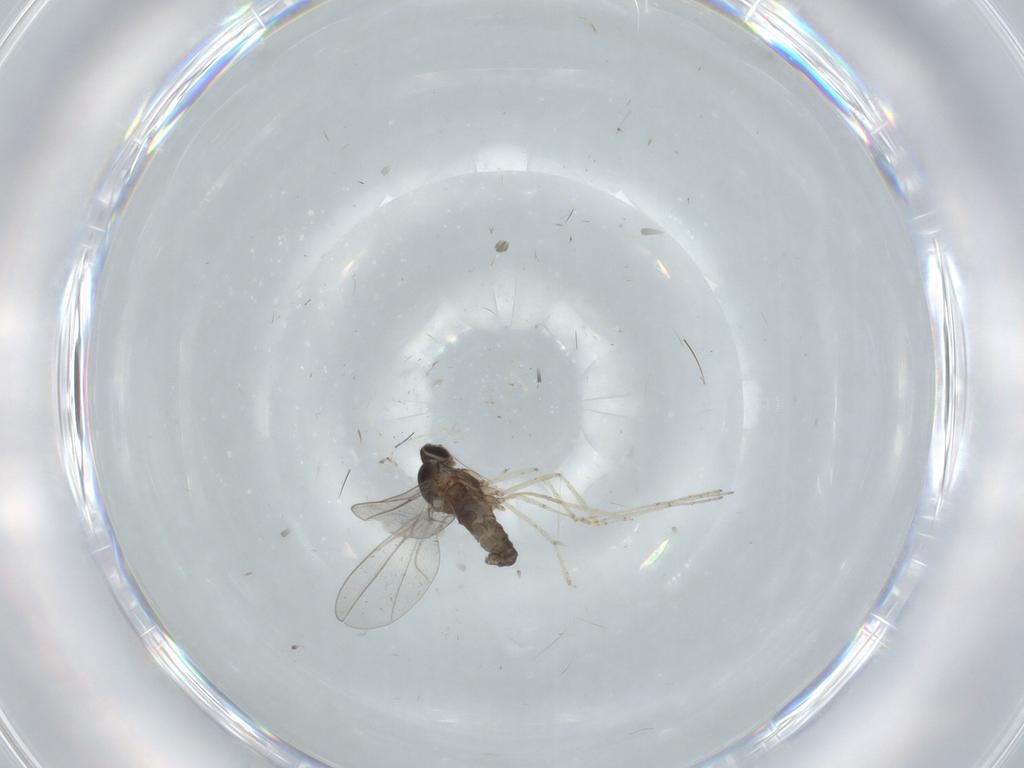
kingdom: Animalia
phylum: Arthropoda
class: Insecta
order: Diptera
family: Cecidomyiidae
